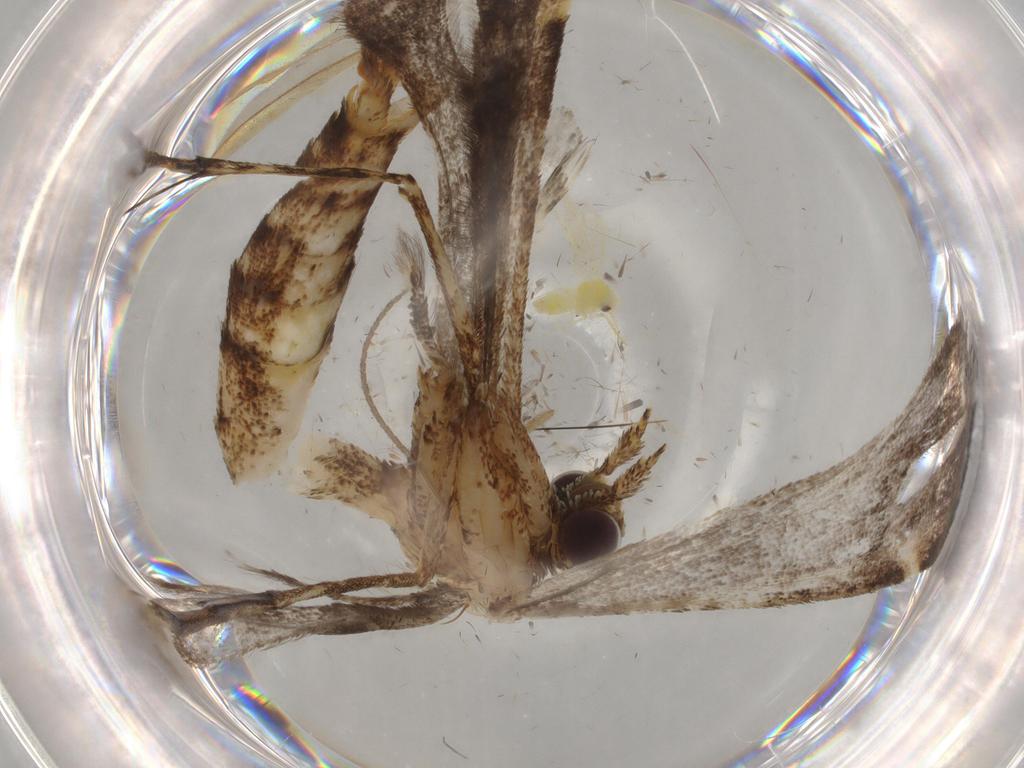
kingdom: Animalia
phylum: Arthropoda
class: Insecta
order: Lepidoptera
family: Pterophoridae
